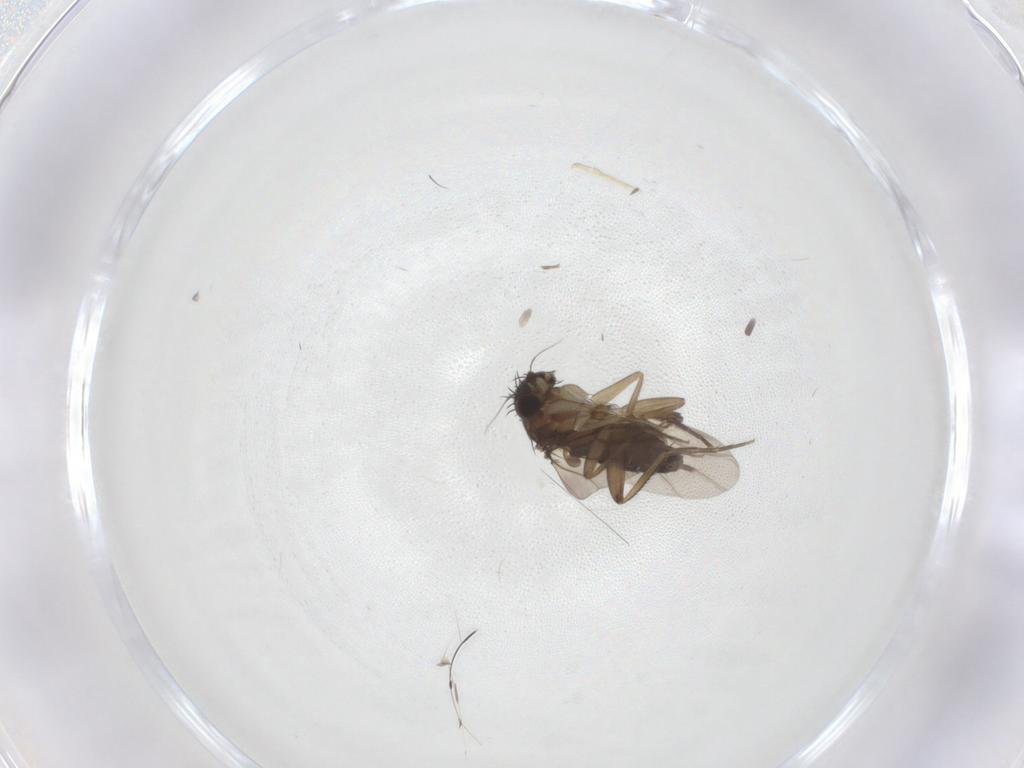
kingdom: Animalia
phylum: Arthropoda
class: Insecta
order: Diptera
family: Phoridae
